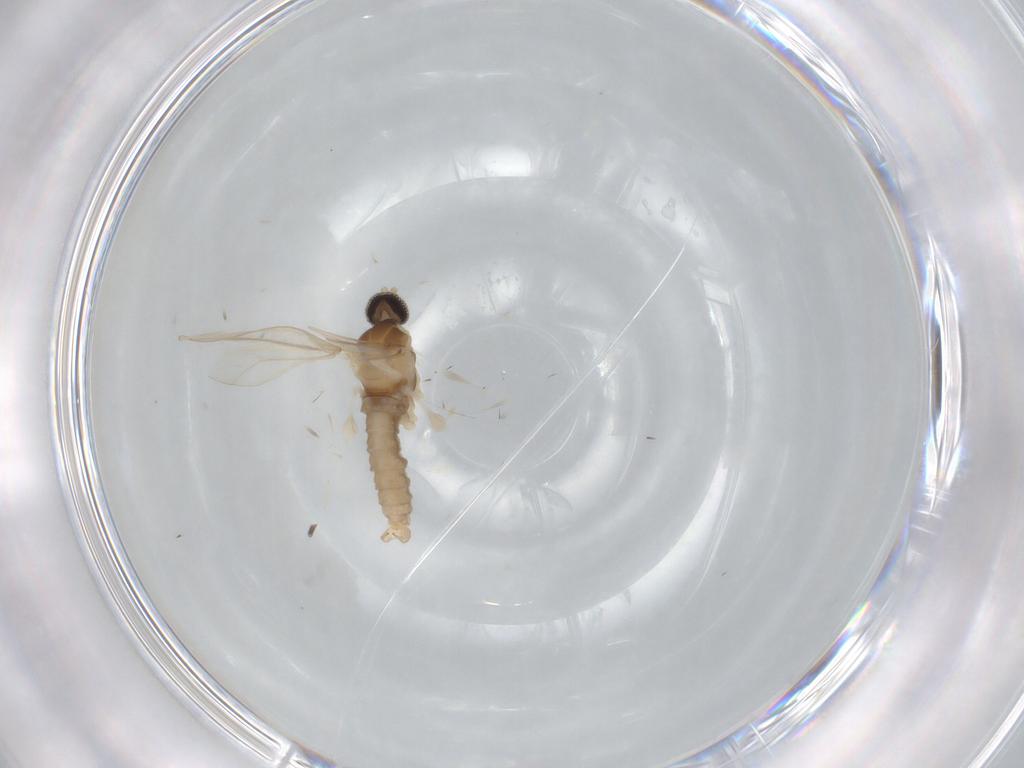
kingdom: Animalia
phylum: Arthropoda
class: Insecta
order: Diptera
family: Cecidomyiidae
